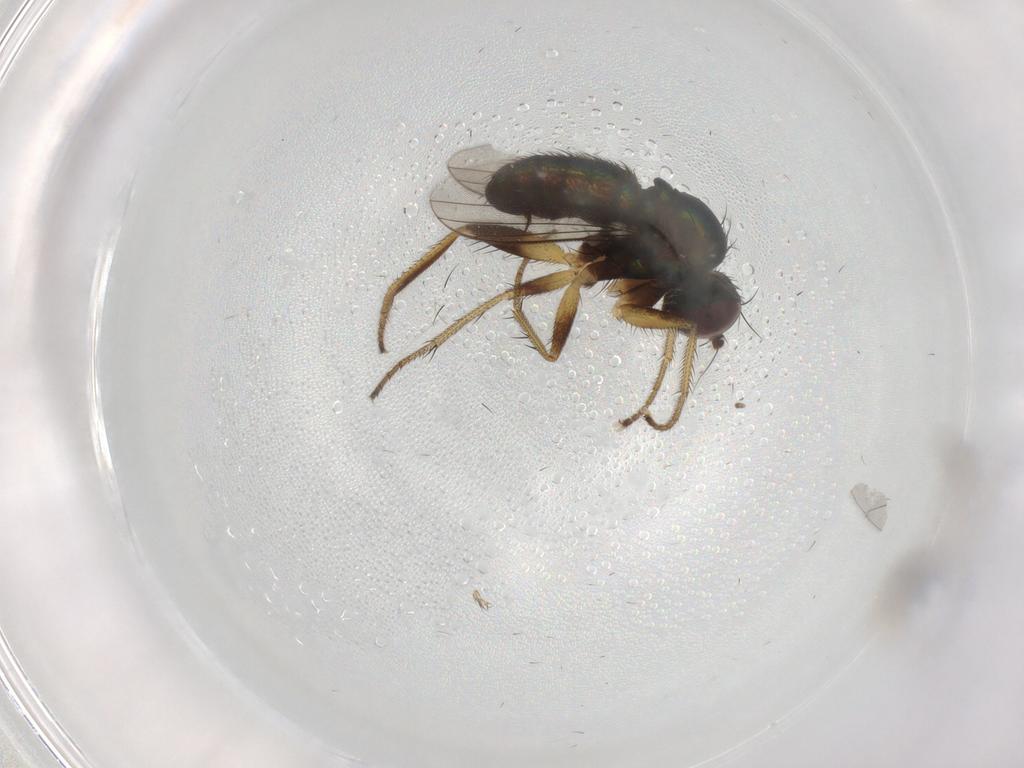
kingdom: Animalia
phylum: Arthropoda
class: Insecta
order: Diptera
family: Dolichopodidae
